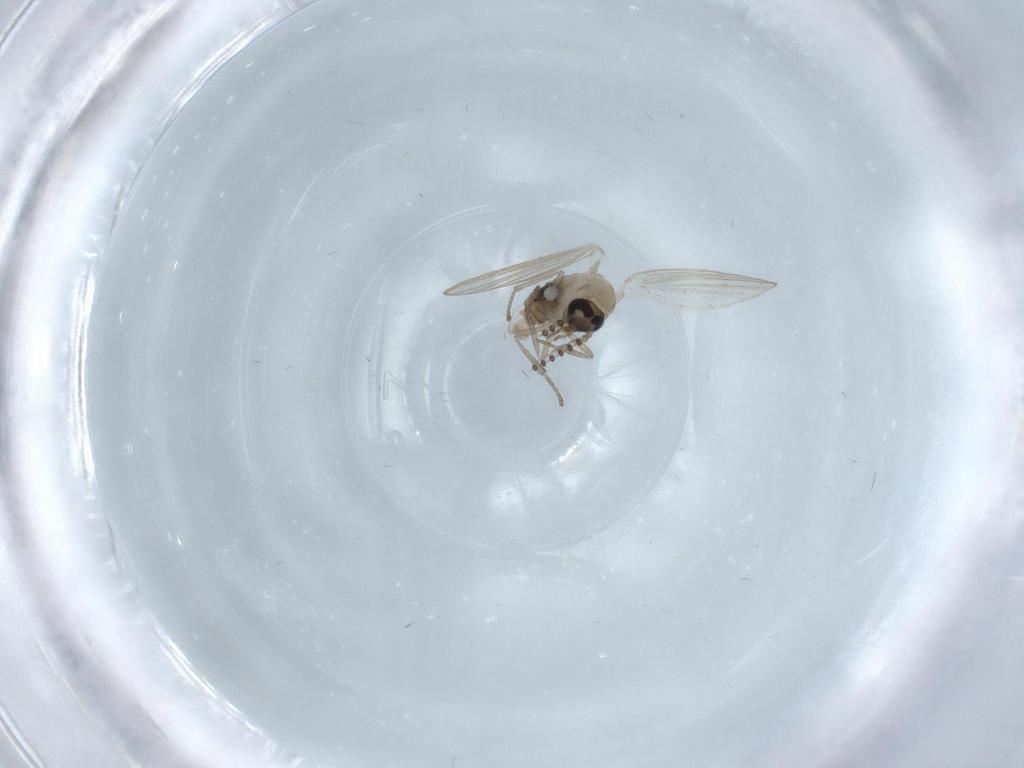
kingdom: Animalia
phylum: Arthropoda
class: Insecta
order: Diptera
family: Psychodidae
